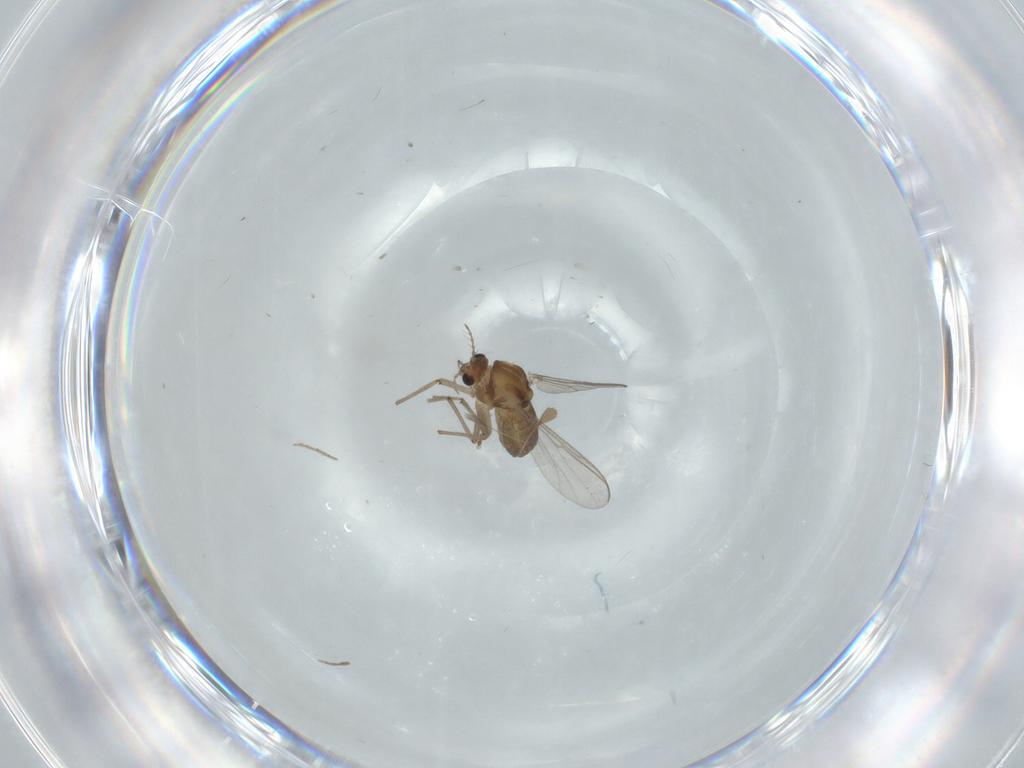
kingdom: Animalia
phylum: Arthropoda
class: Insecta
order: Diptera
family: Chironomidae
